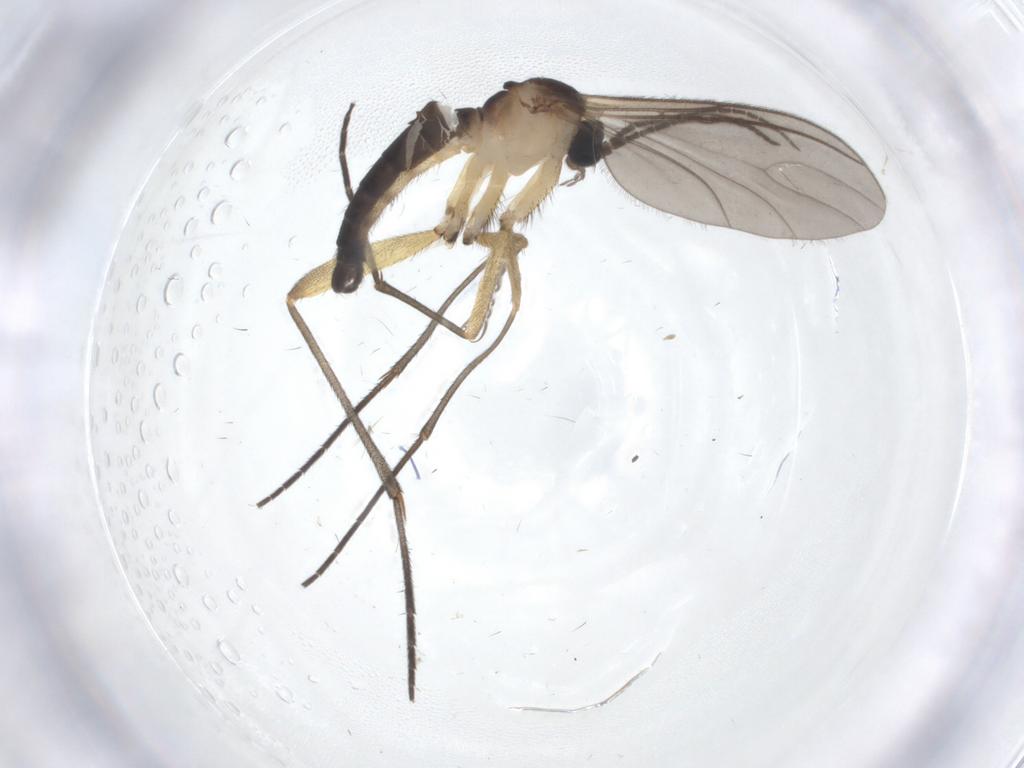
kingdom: Animalia
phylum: Arthropoda
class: Insecta
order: Diptera
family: Sciaridae
